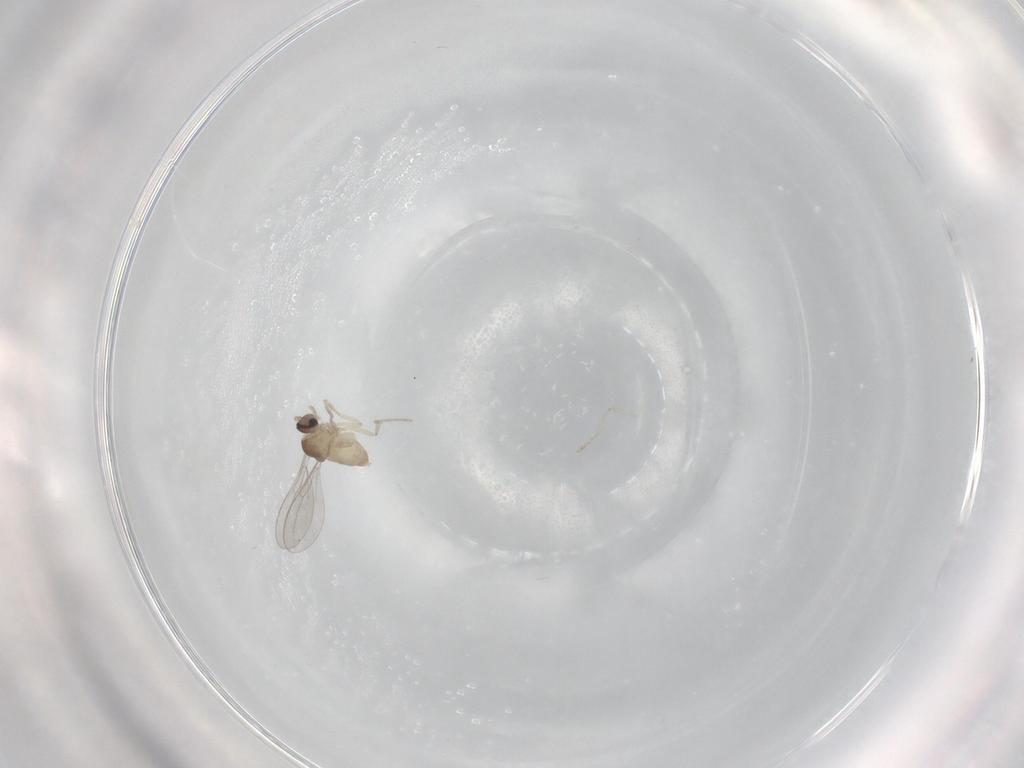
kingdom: Animalia
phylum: Arthropoda
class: Insecta
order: Diptera
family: Cecidomyiidae
